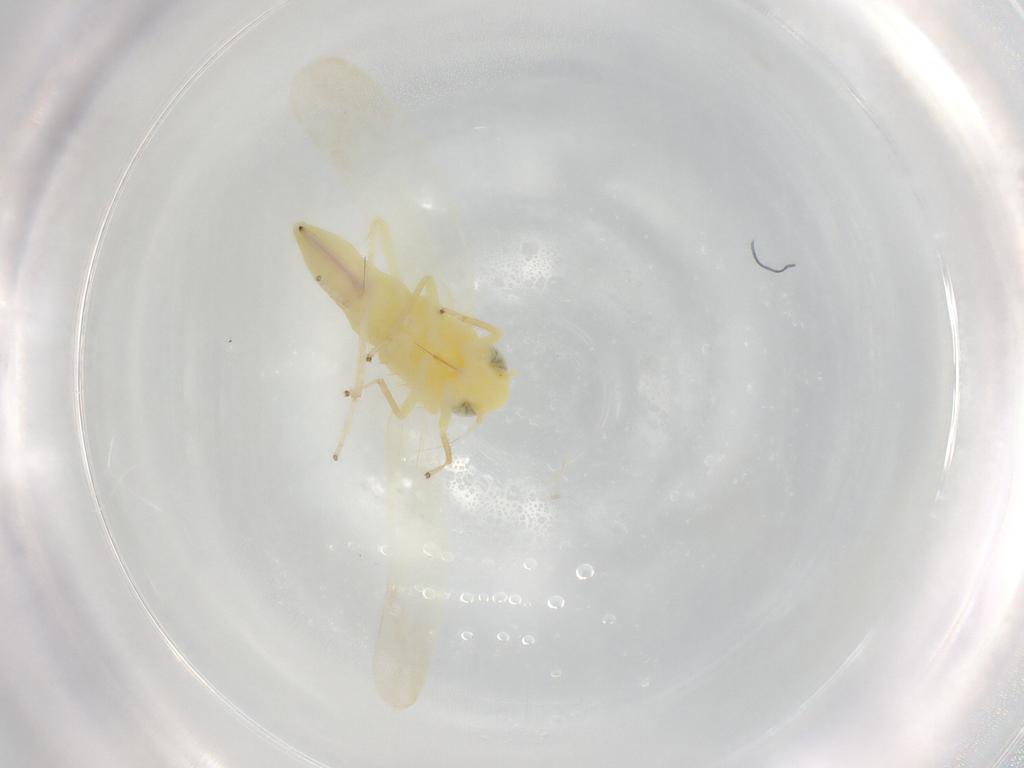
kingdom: Animalia
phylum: Arthropoda
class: Insecta
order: Hemiptera
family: Cicadellidae
